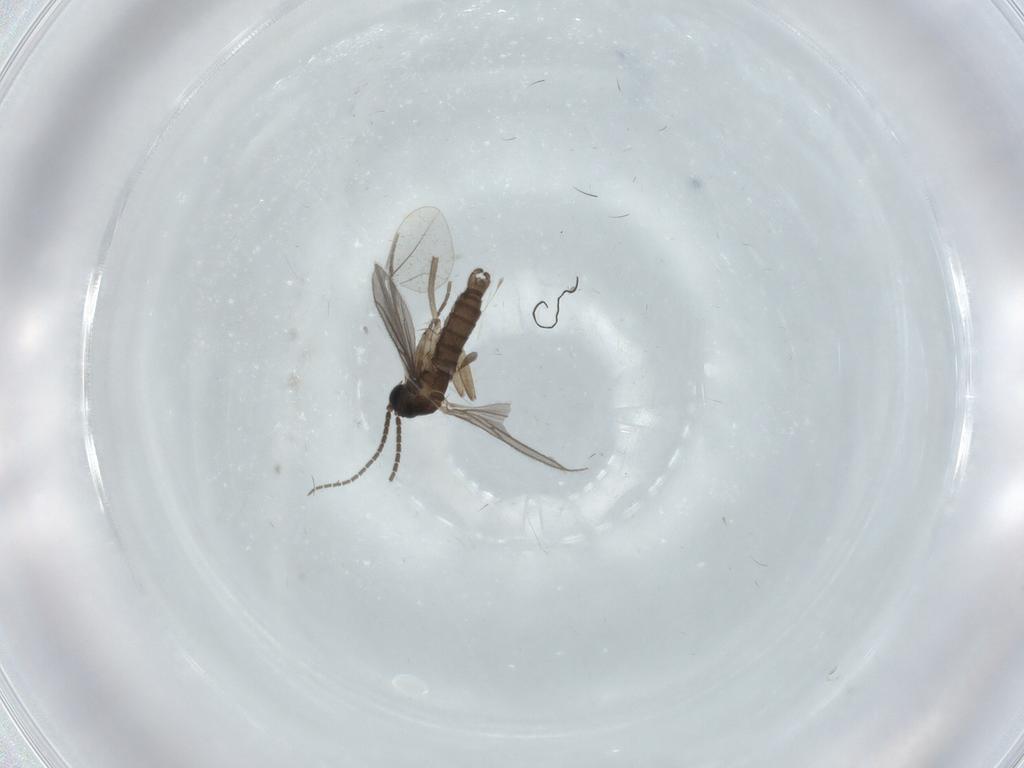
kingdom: Animalia
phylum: Arthropoda
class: Insecta
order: Diptera
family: Sciaridae
